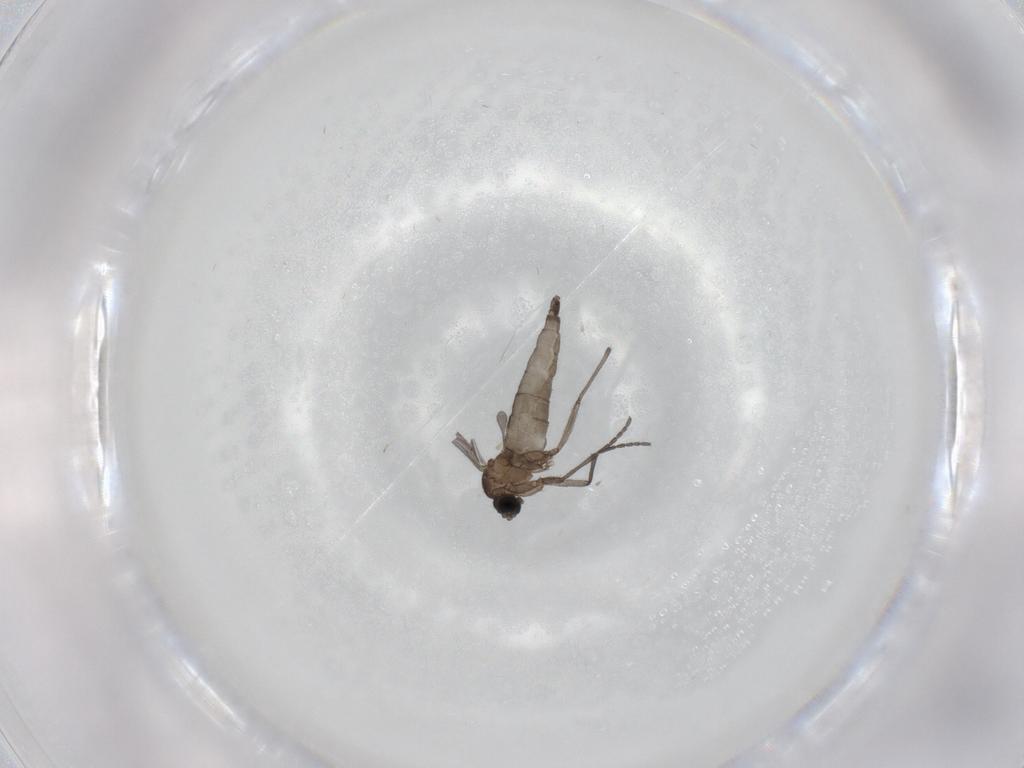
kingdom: Animalia
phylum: Arthropoda
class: Insecta
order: Diptera
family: Sciaridae
